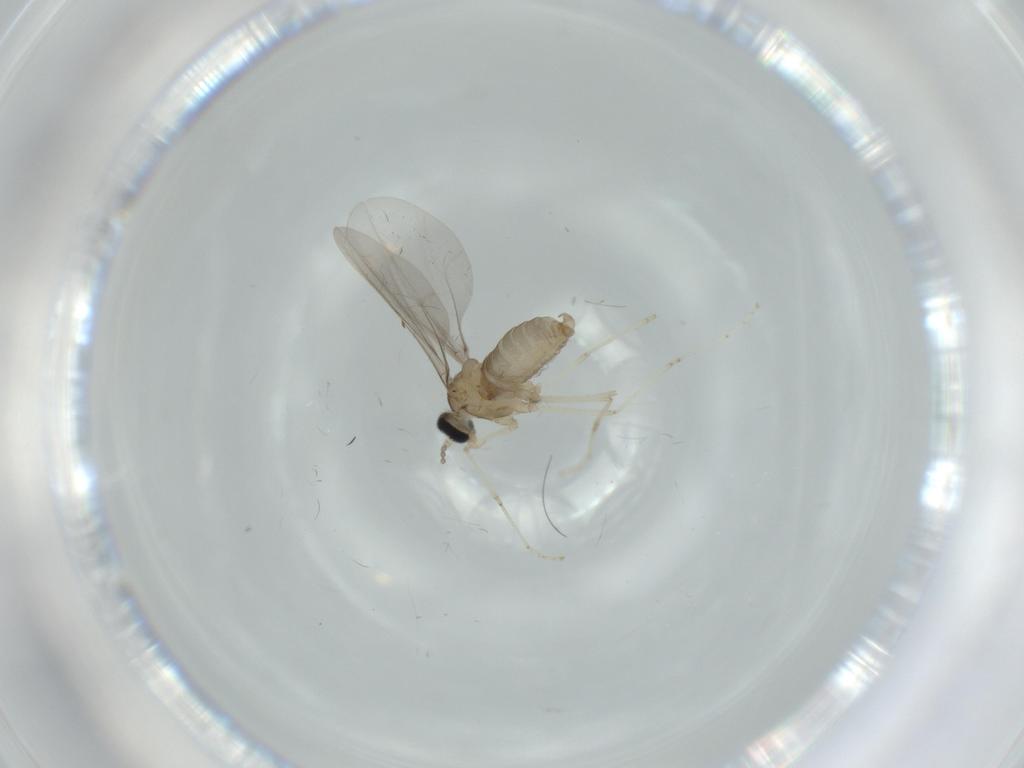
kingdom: Animalia
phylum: Arthropoda
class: Insecta
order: Diptera
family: Cecidomyiidae
